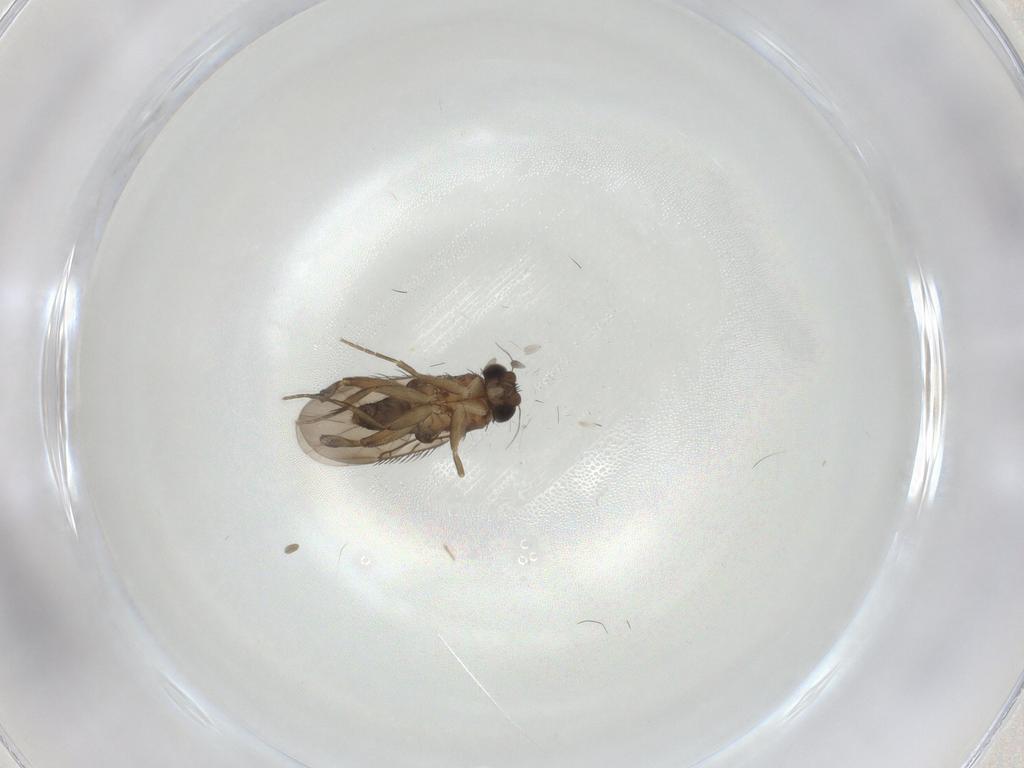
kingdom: Animalia
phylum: Arthropoda
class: Insecta
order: Diptera
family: Phoridae
